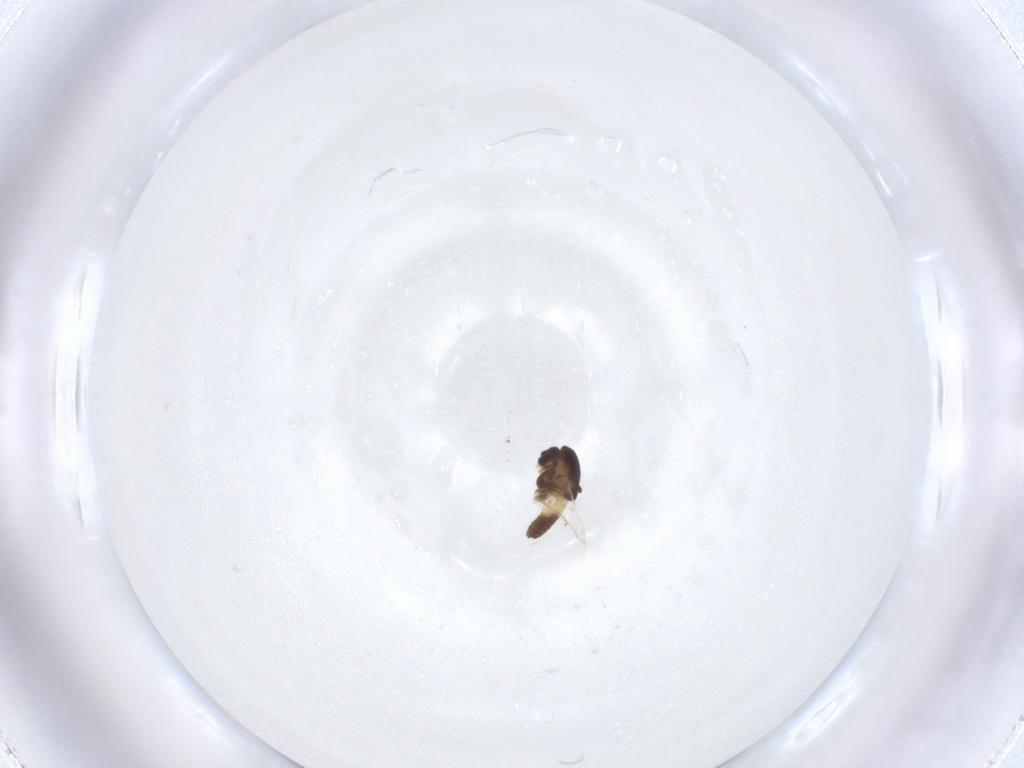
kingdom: Animalia
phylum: Arthropoda
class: Insecta
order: Diptera
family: Chironomidae
